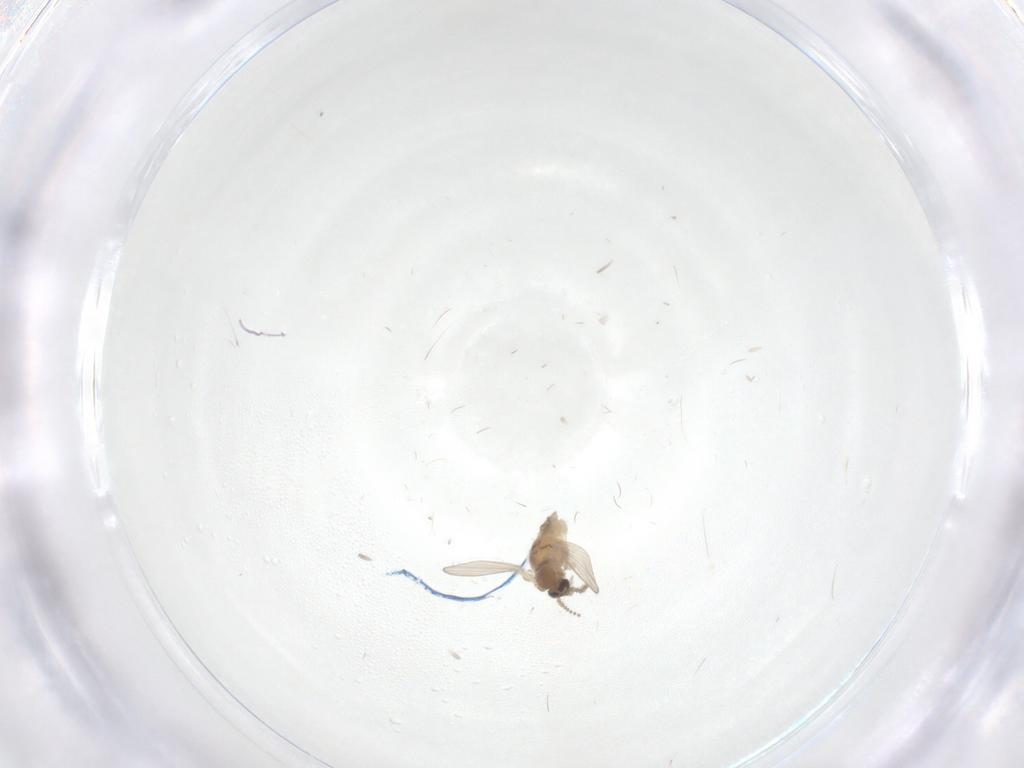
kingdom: Animalia
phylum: Arthropoda
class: Insecta
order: Diptera
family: Psychodidae
